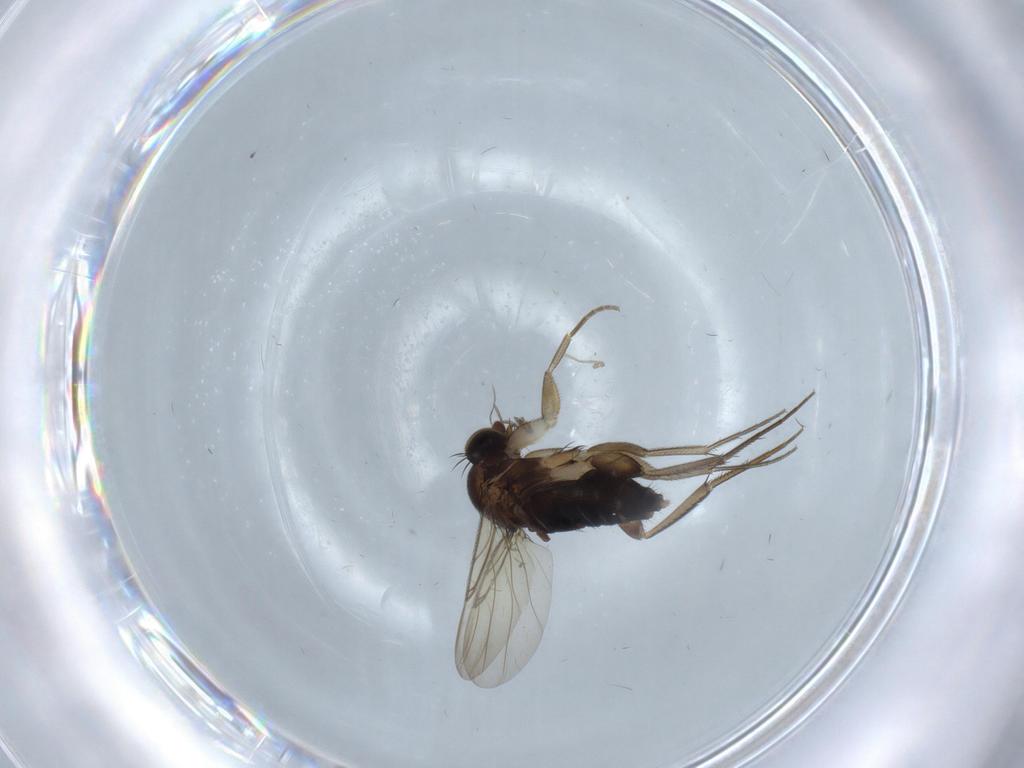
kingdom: Animalia
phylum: Arthropoda
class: Insecta
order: Diptera
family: Phoridae
